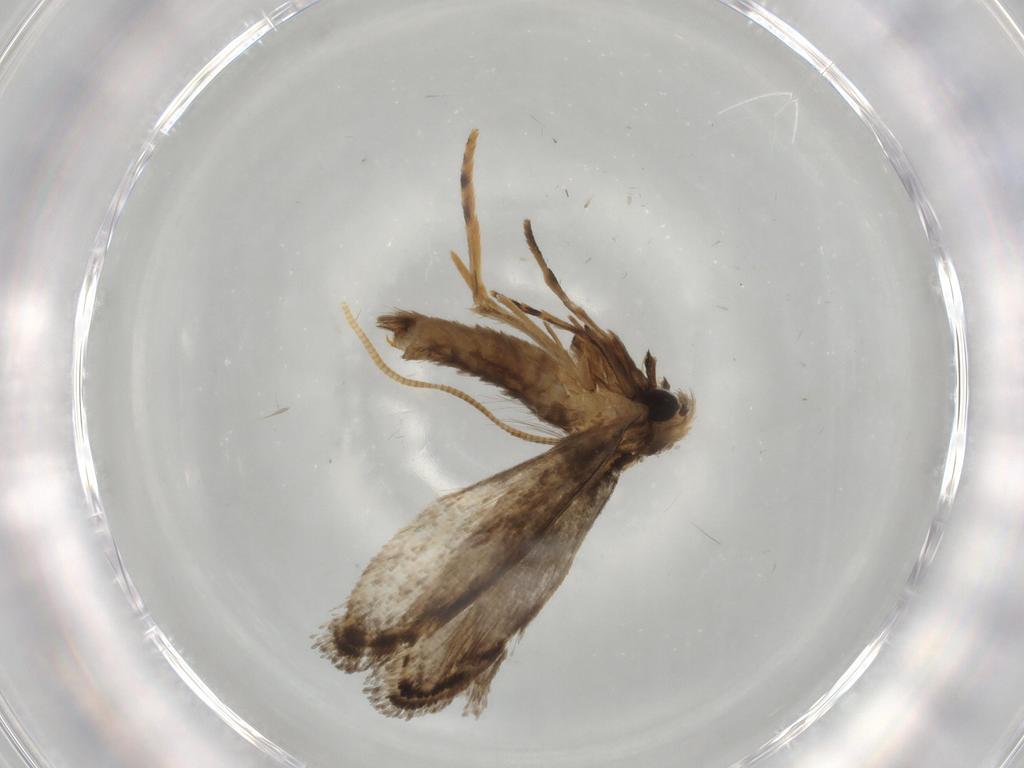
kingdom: Animalia
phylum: Arthropoda
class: Insecta
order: Lepidoptera
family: Tineidae
